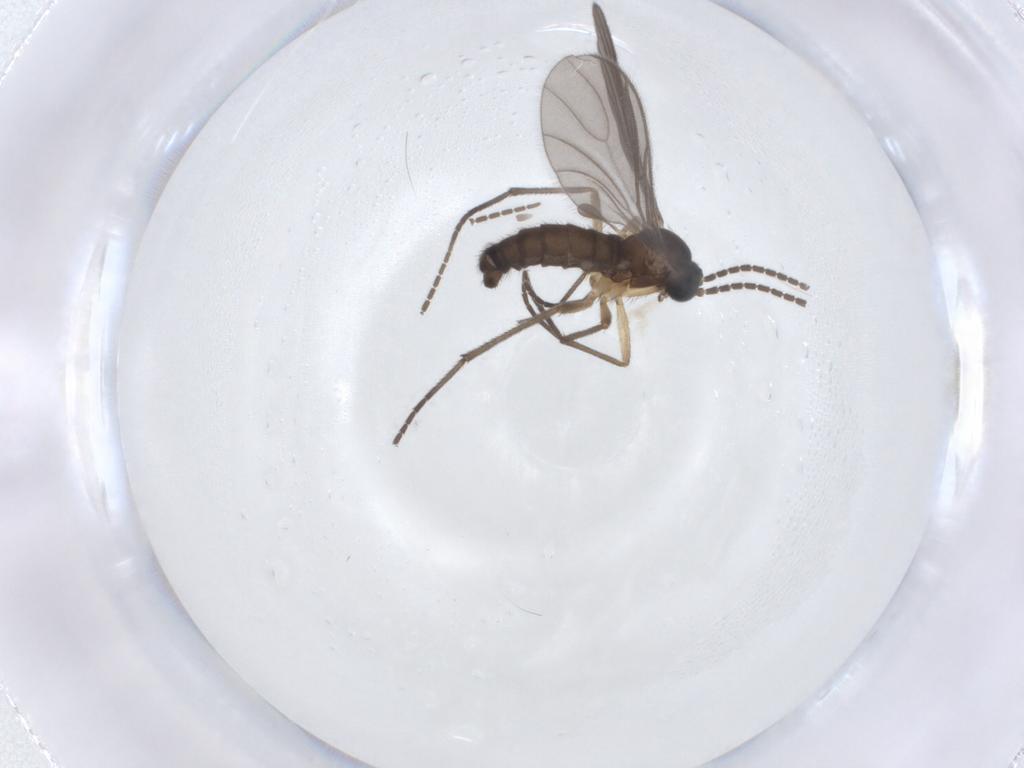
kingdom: Animalia
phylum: Arthropoda
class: Insecta
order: Diptera
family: Sciaridae
